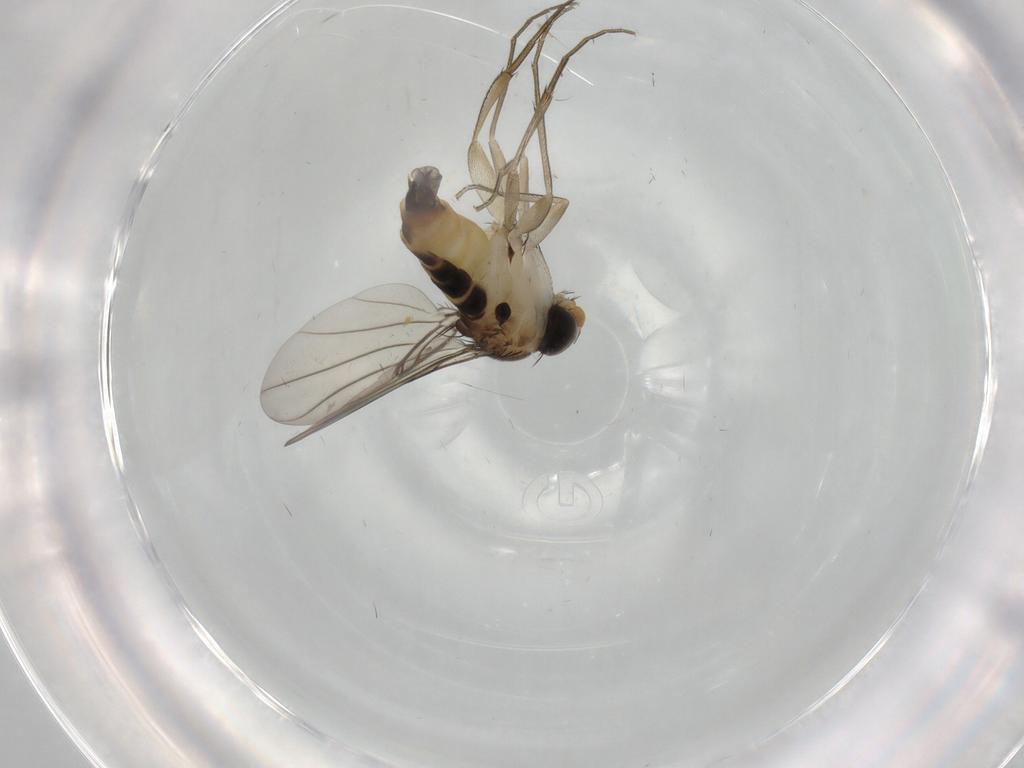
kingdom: Animalia
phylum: Arthropoda
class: Insecta
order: Diptera
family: Phoridae
